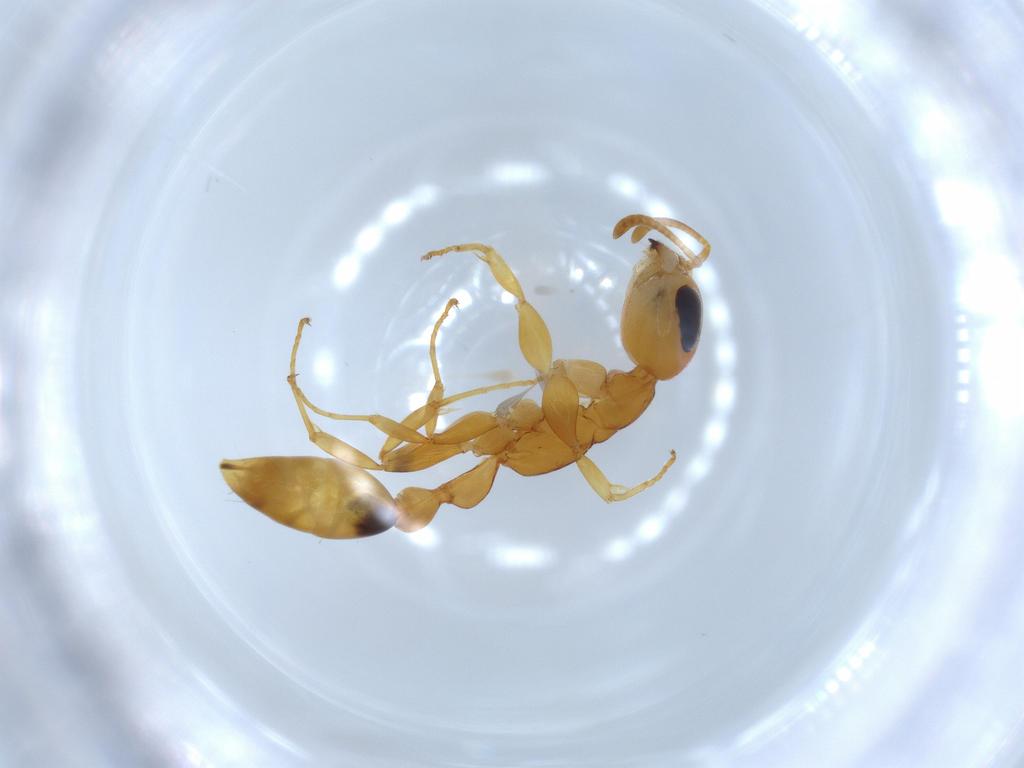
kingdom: Animalia
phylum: Arthropoda
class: Insecta
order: Hymenoptera
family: Formicidae
